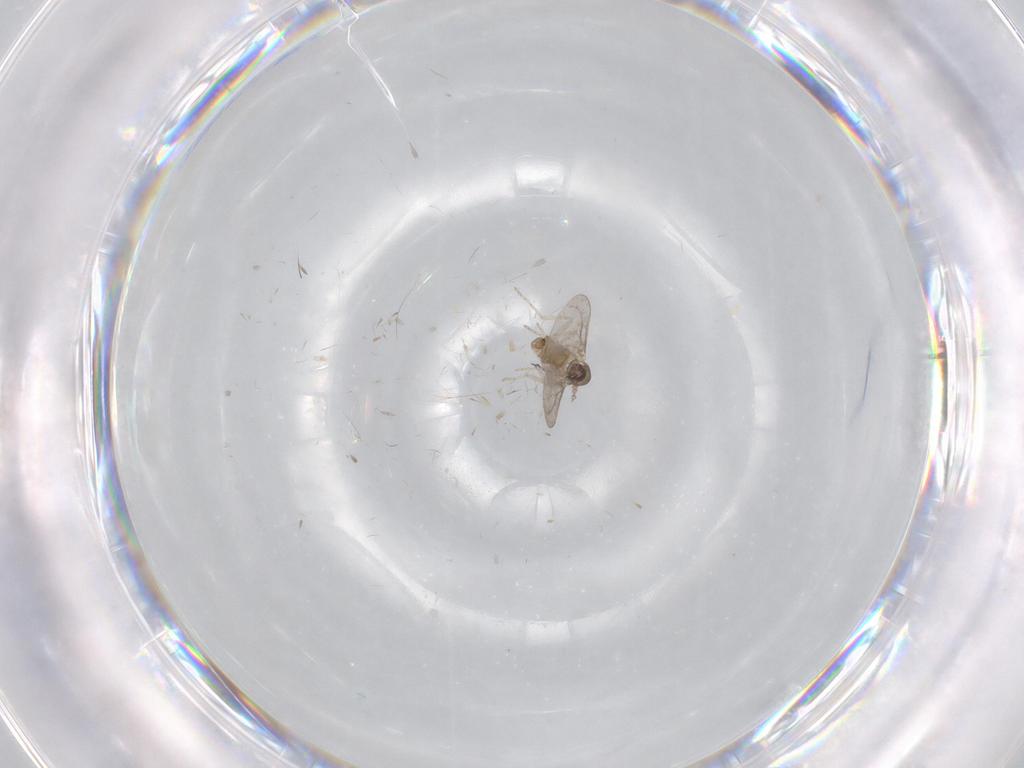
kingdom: Animalia
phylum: Arthropoda
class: Insecta
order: Diptera
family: Cecidomyiidae
